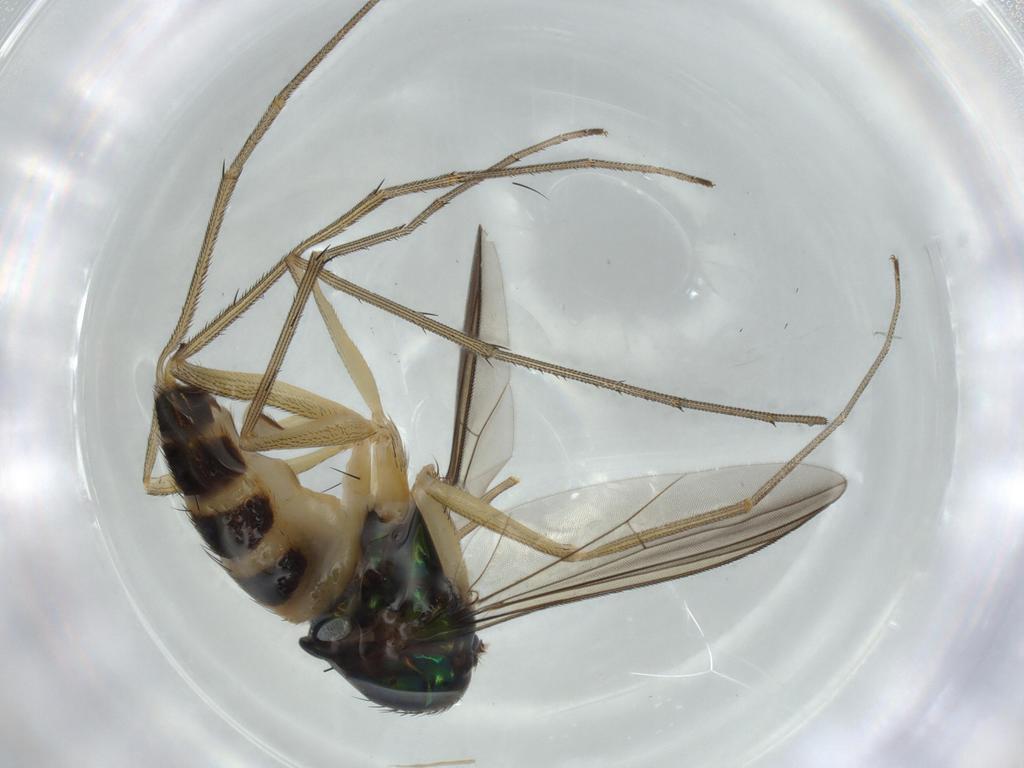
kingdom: Animalia
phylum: Arthropoda
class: Insecta
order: Diptera
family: Dolichopodidae
